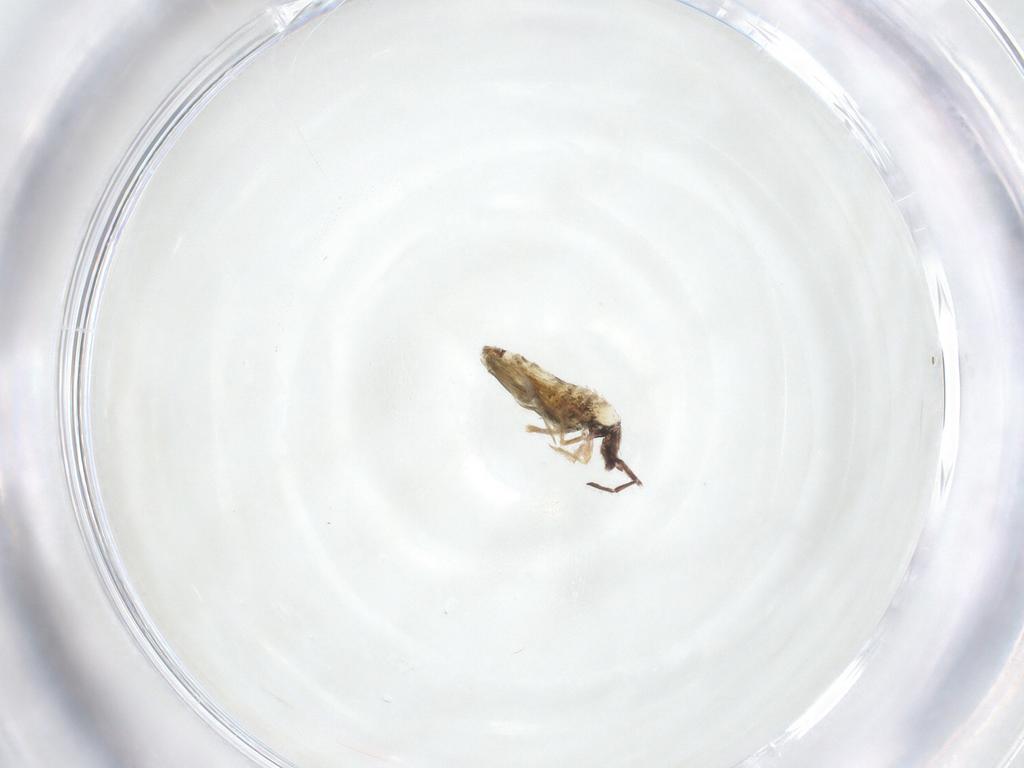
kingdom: Animalia
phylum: Arthropoda
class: Collembola
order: Entomobryomorpha
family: Entomobryidae
